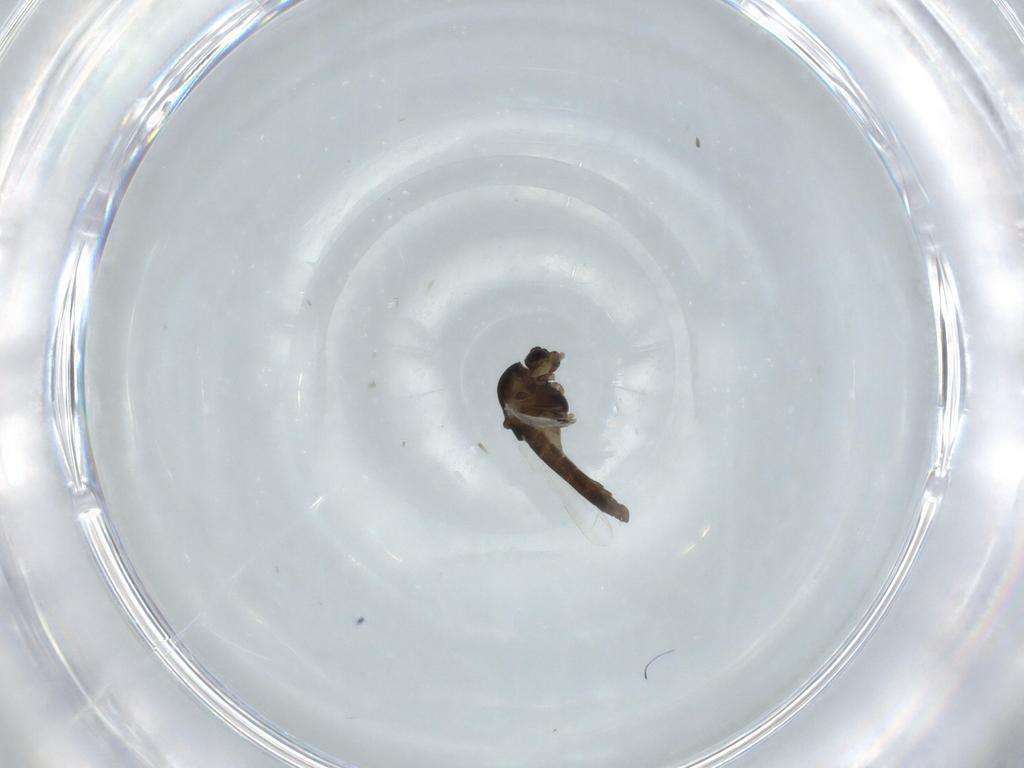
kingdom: Animalia
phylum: Arthropoda
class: Insecta
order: Diptera
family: Chironomidae
